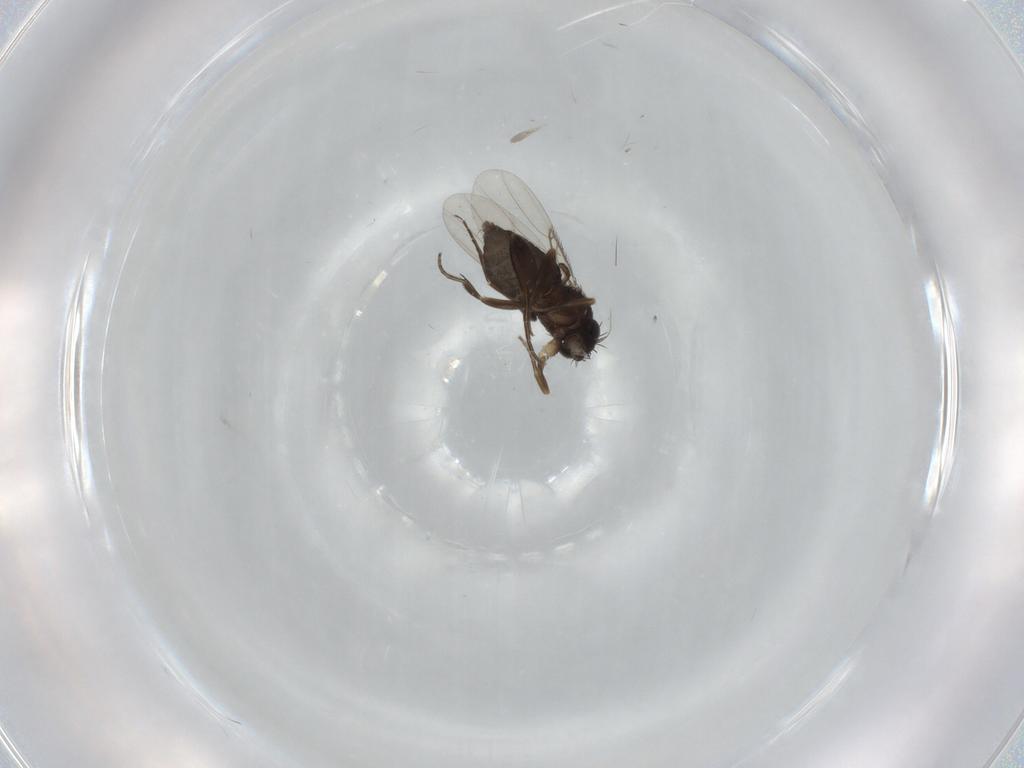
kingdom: Animalia
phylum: Arthropoda
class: Insecta
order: Diptera
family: Phoridae
